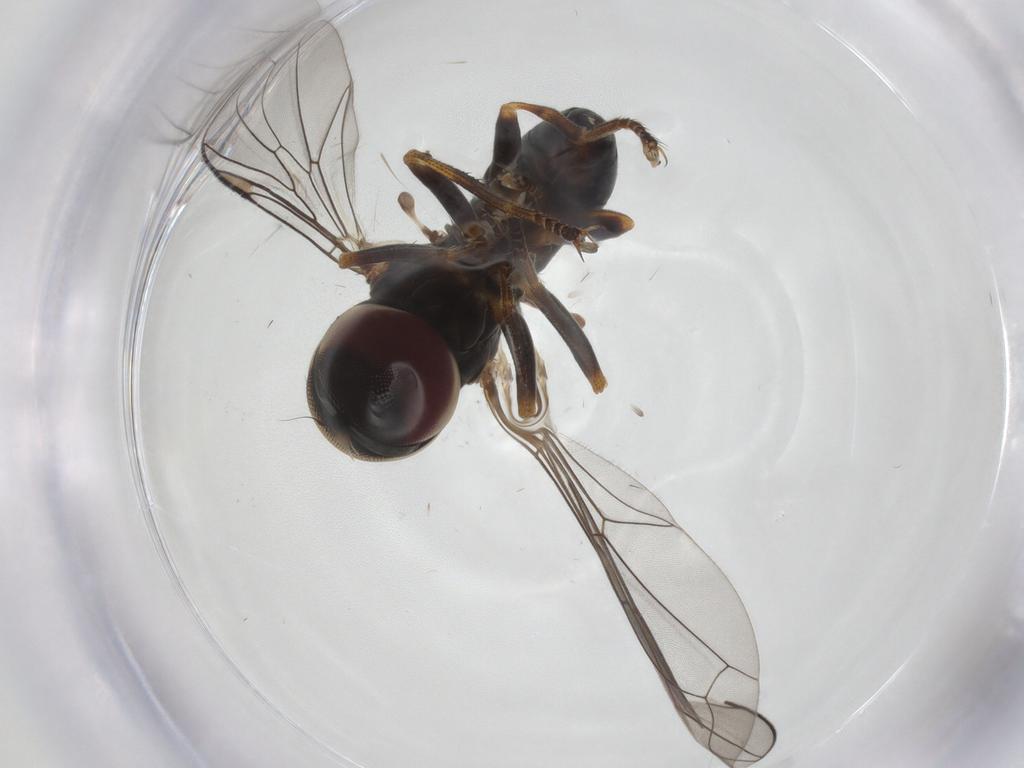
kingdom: Animalia
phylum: Arthropoda
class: Insecta
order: Diptera
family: Pipunculidae
